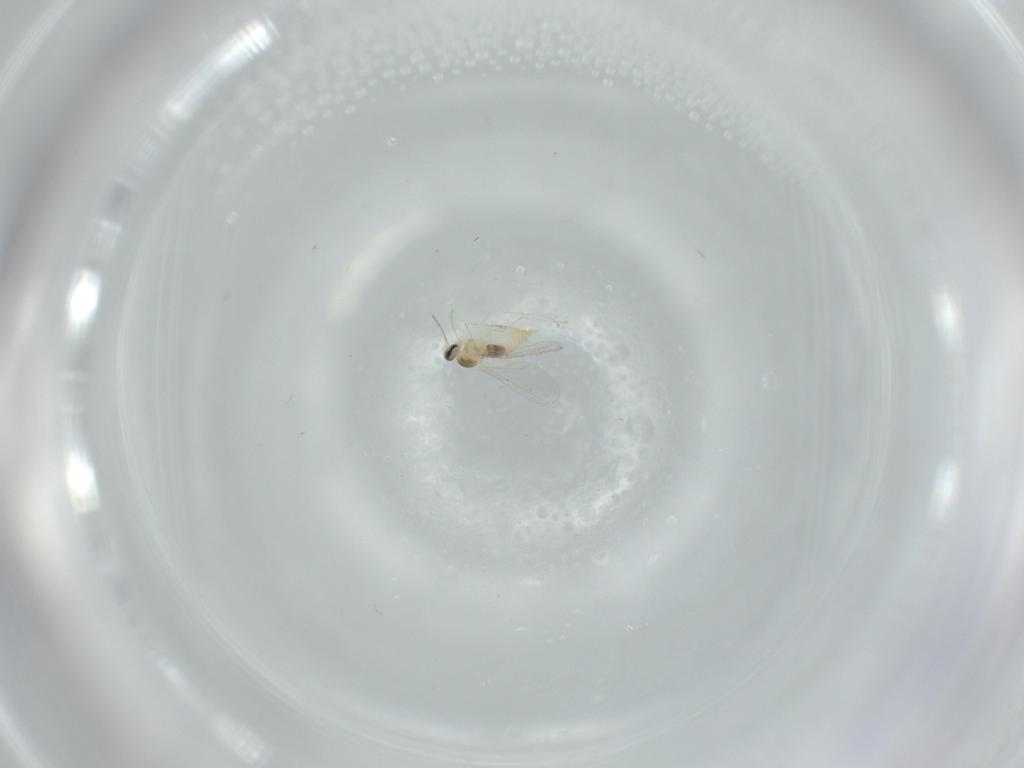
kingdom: Animalia
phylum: Arthropoda
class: Insecta
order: Diptera
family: Cecidomyiidae
